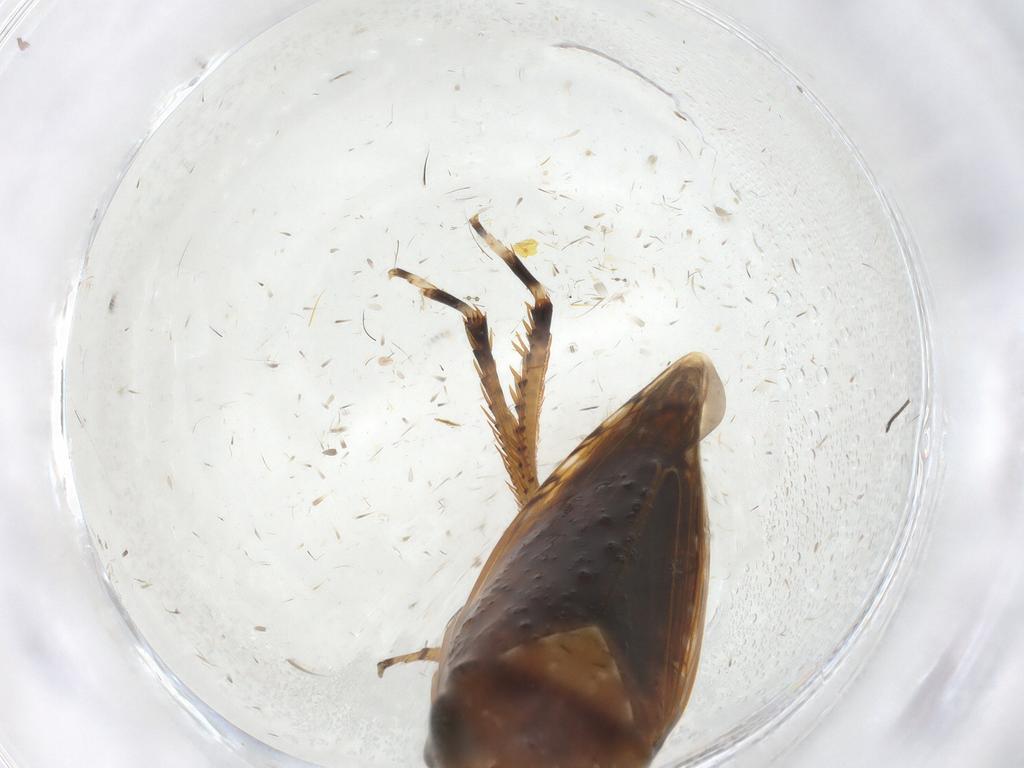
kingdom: Animalia
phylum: Arthropoda
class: Insecta
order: Hemiptera
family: Cicadellidae
